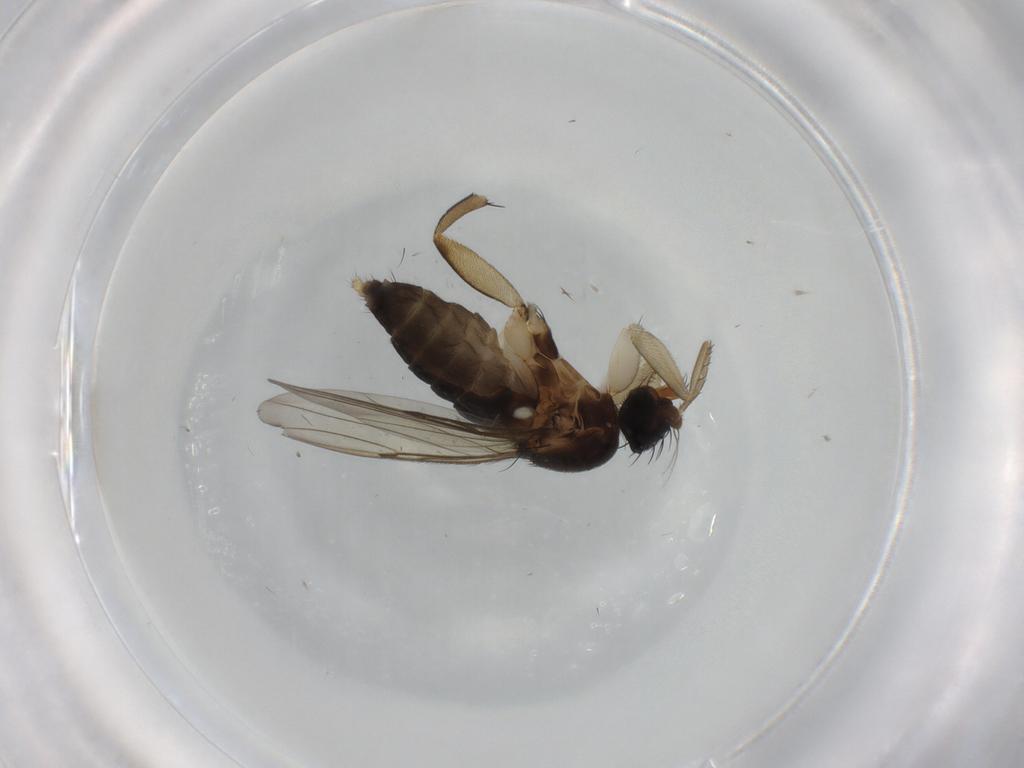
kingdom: Animalia
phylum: Arthropoda
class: Insecta
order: Diptera
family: Phoridae
